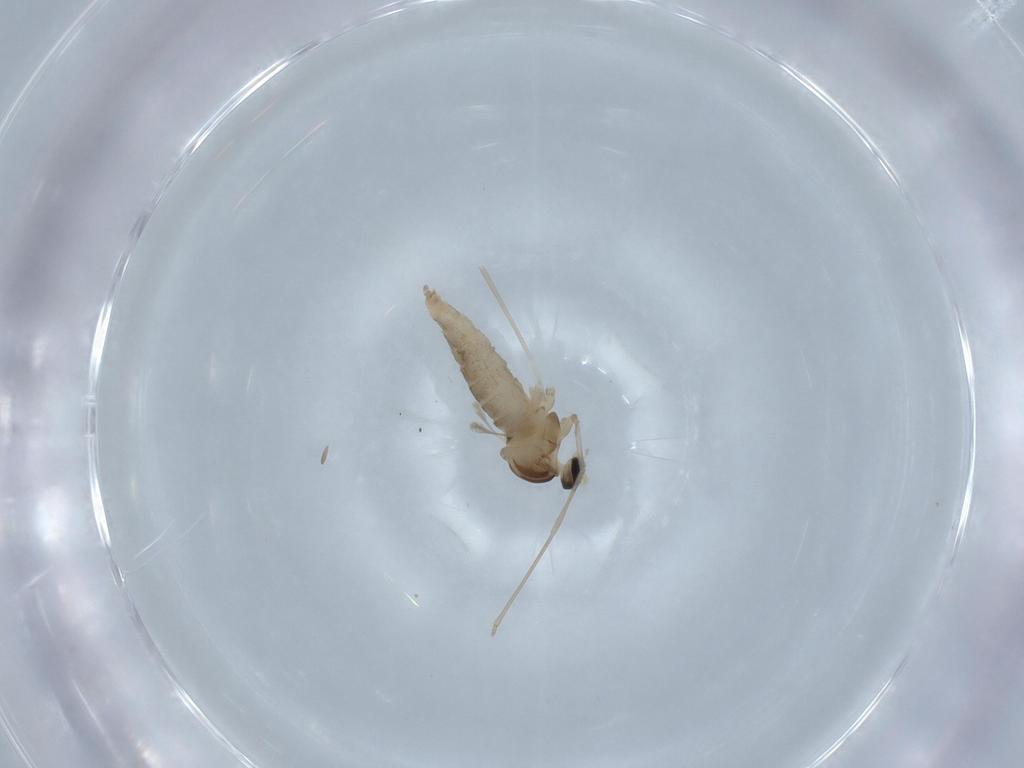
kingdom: Animalia
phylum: Arthropoda
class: Insecta
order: Diptera
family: Cecidomyiidae
